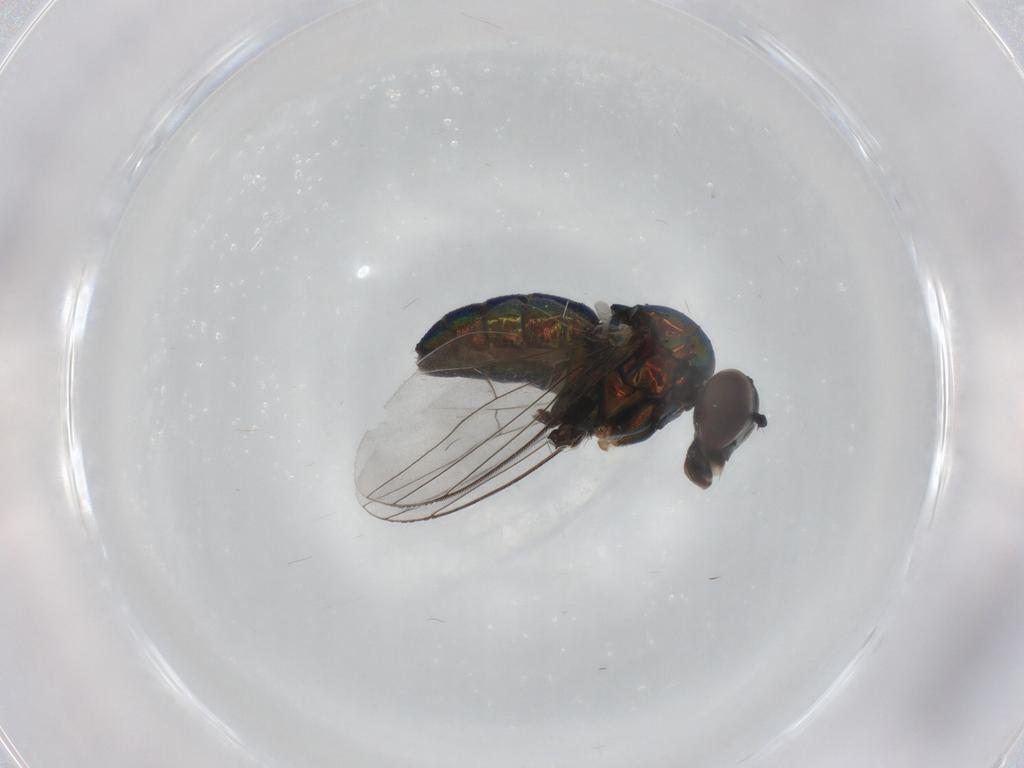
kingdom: Animalia
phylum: Arthropoda
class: Insecta
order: Diptera
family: Dolichopodidae
